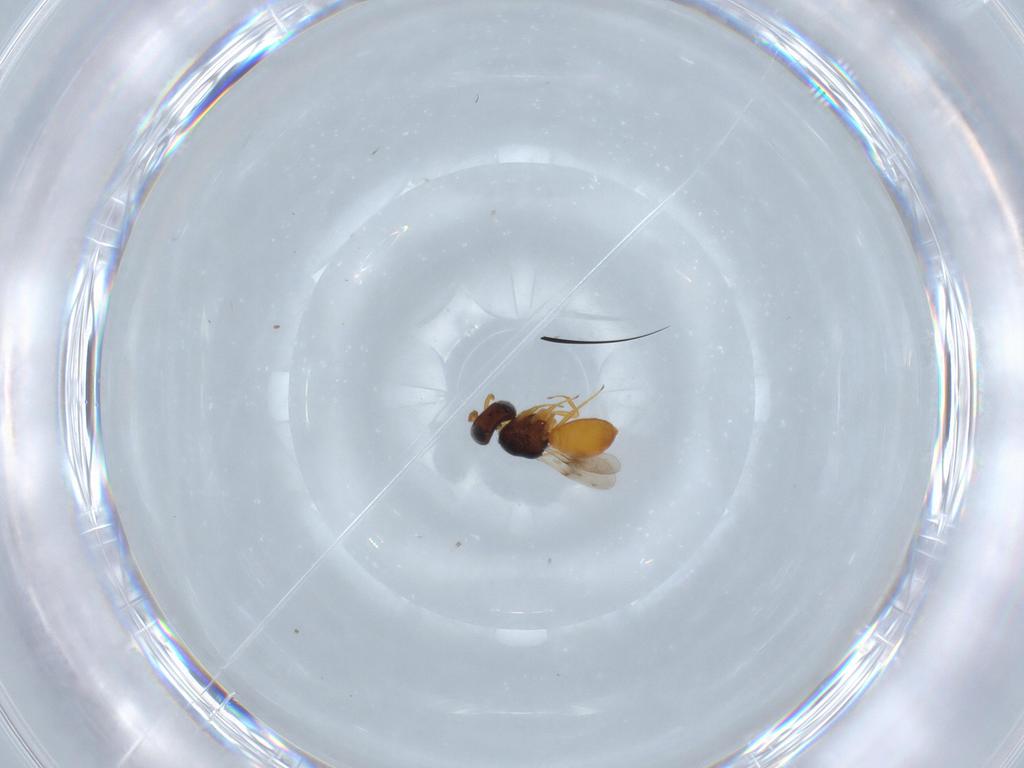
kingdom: Animalia
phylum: Arthropoda
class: Insecta
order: Hymenoptera
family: Scelionidae
